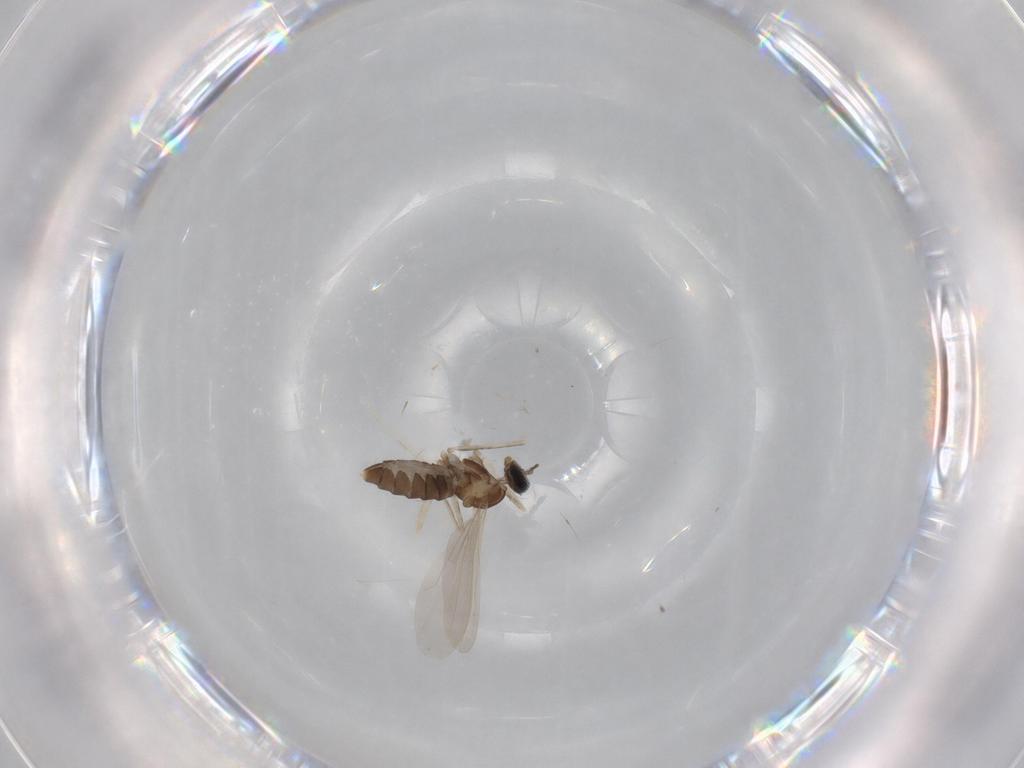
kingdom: Animalia
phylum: Arthropoda
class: Insecta
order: Diptera
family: Cecidomyiidae
